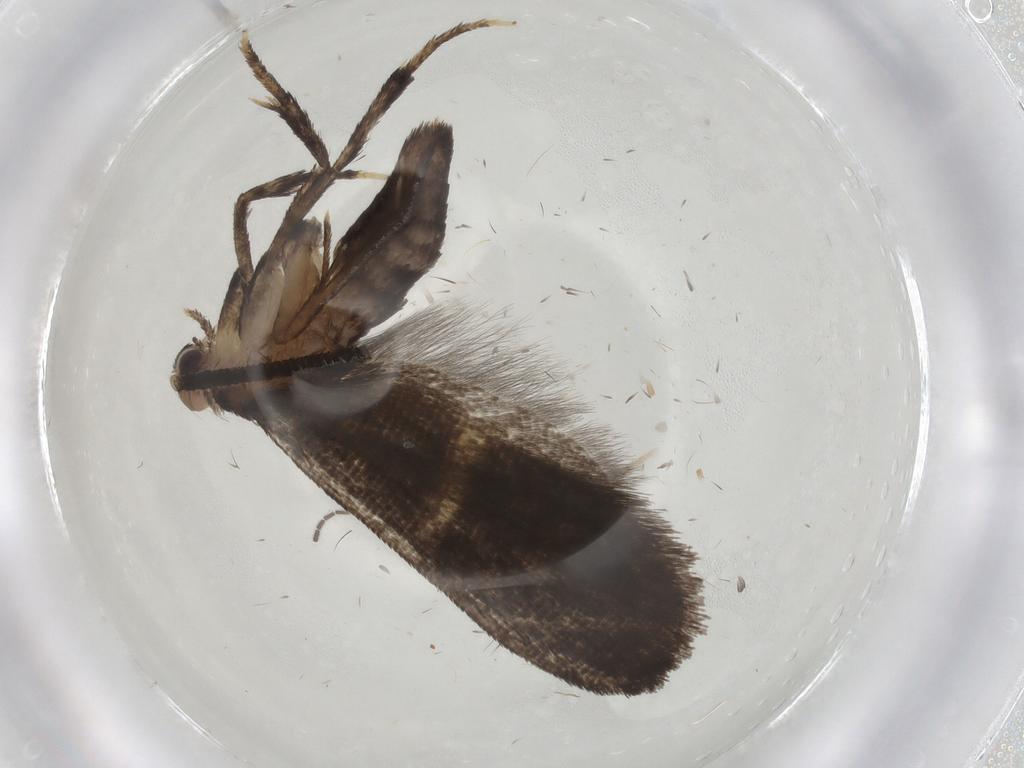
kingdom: Animalia
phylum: Arthropoda
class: Insecta
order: Lepidoptera
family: Choreutidae
